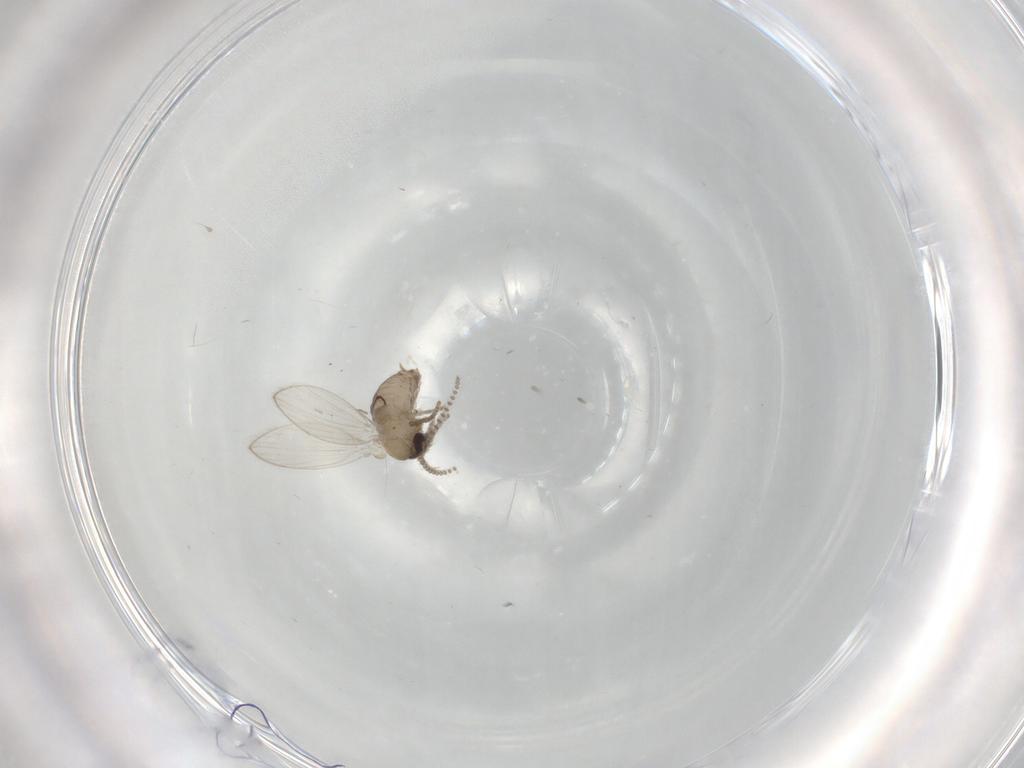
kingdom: Animalia
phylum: Arthropoda
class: Insecta
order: Diptera
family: Psychodidae
